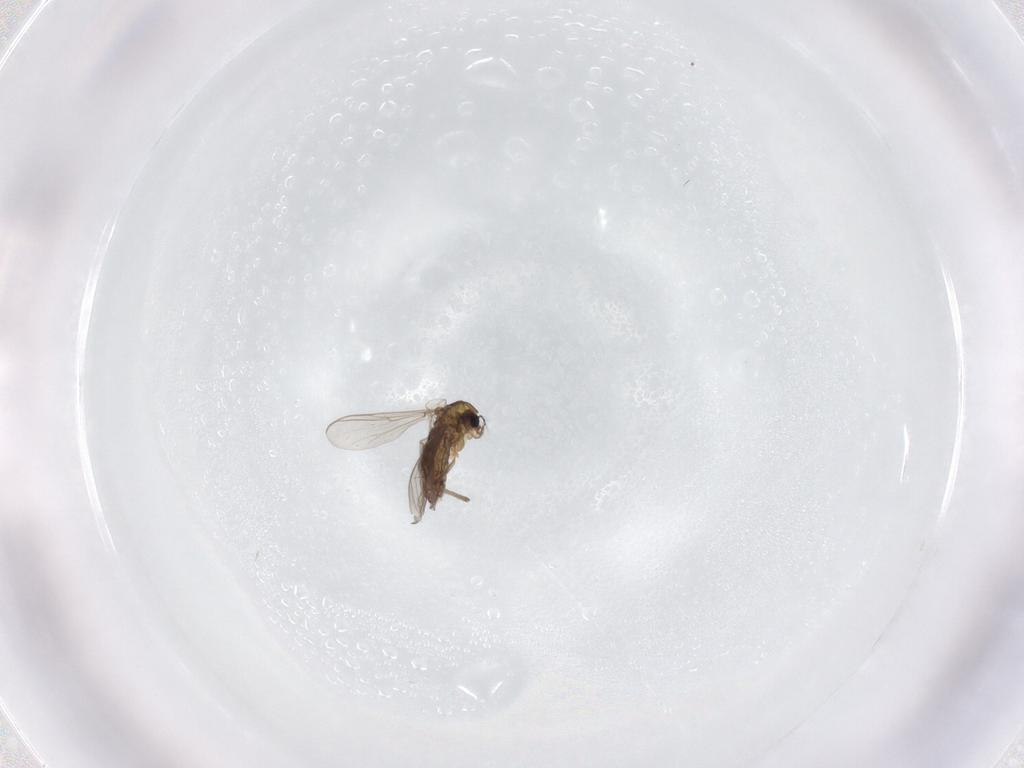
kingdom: Animalia
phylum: Arthropoda
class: Insecta
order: Diptera
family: Chironomidae
